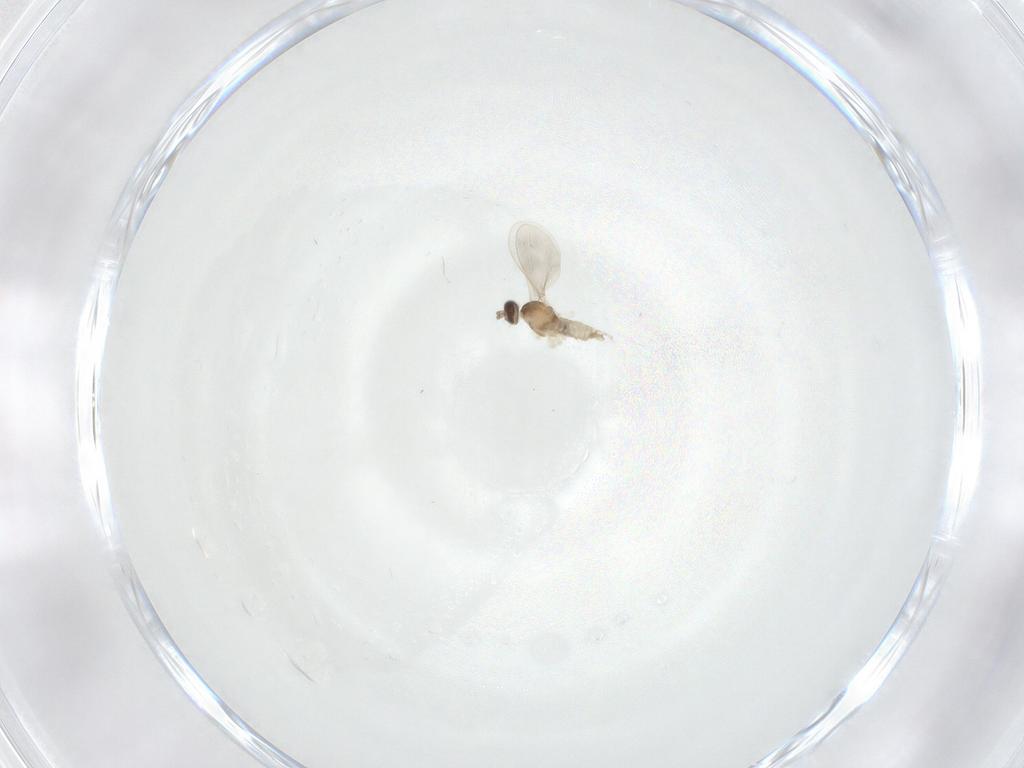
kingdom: Animalia
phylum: Arthropoda
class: Insecta
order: Diptera
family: Cecidomyiidae
